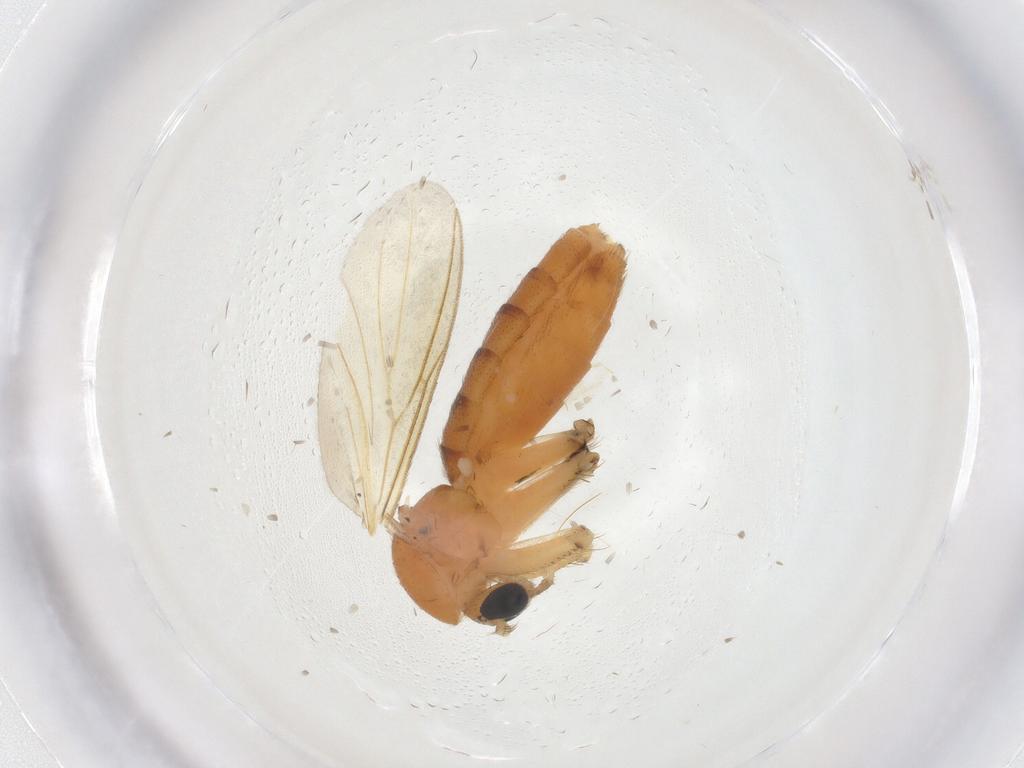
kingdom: Animalia
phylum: Arthropoda
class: Insecta
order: Diptera
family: Mycetophilidae
